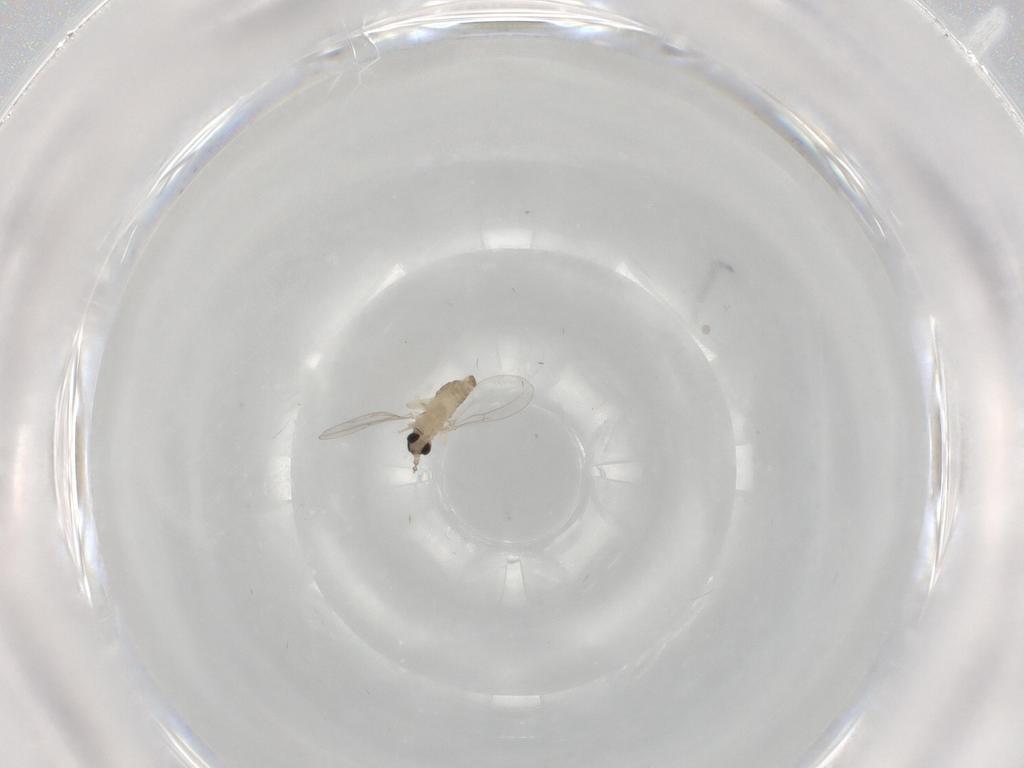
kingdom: Animalia
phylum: Arthropoda
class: Insecta
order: Diptera
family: Cecidomyiidae
